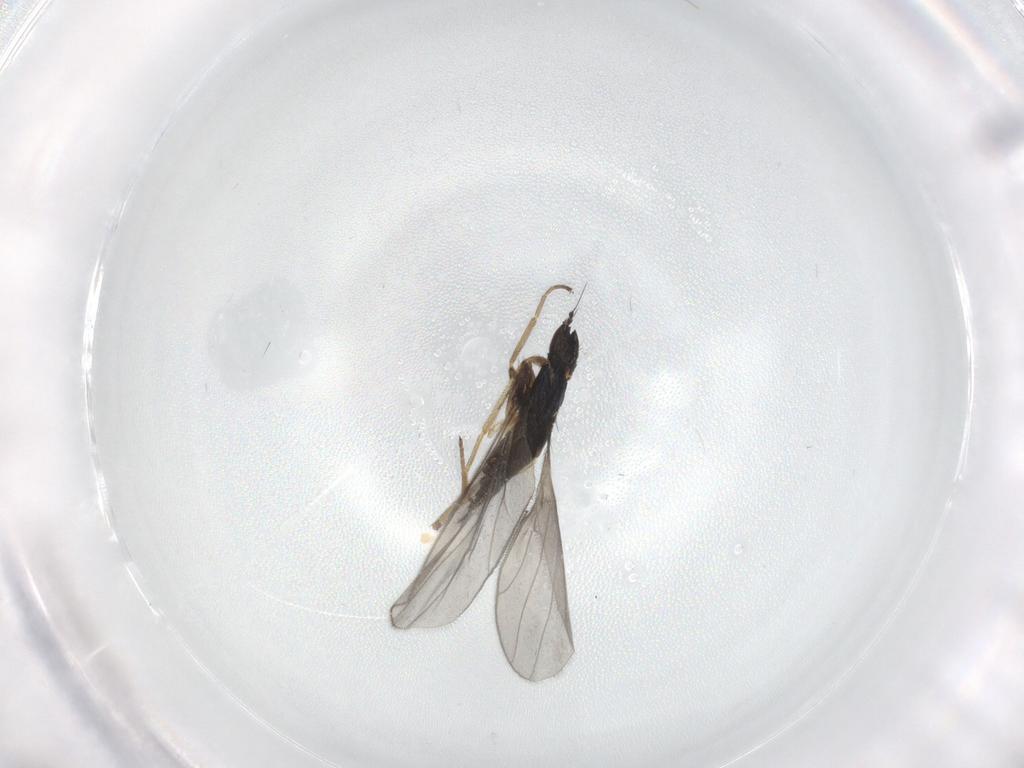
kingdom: Animalia
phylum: Arthropoda
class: Insecta
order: Diptera
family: Hybotidae
